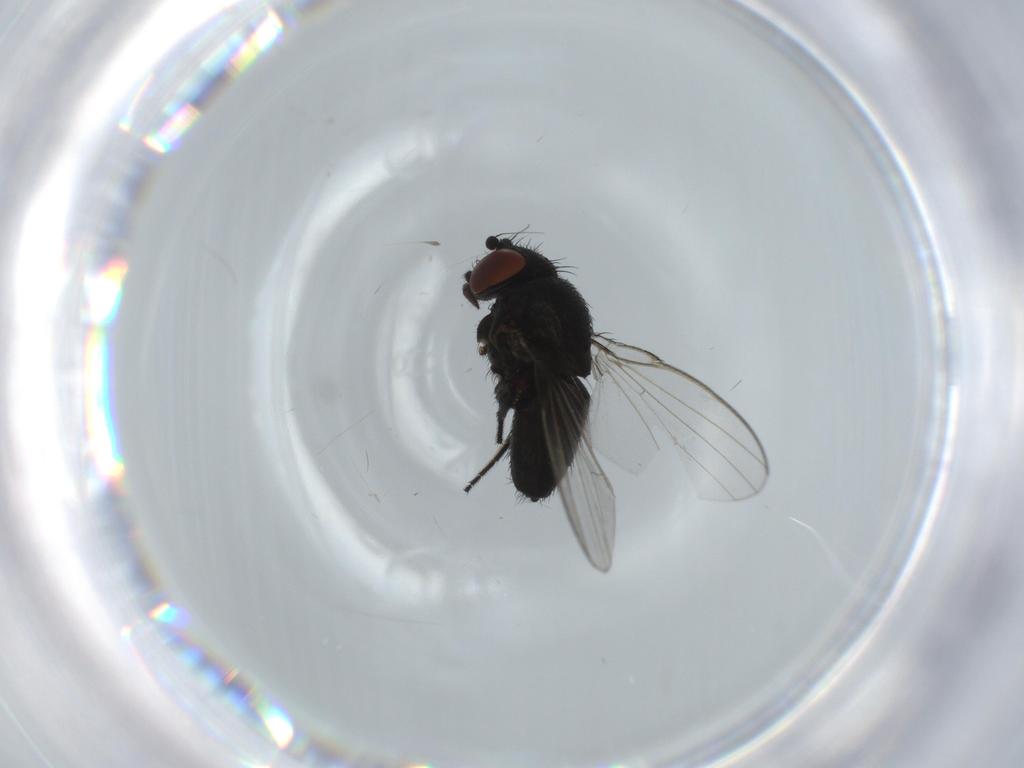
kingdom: Animalia
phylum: Arthropoda
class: Insecta
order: Diptera
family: Milichiidae
